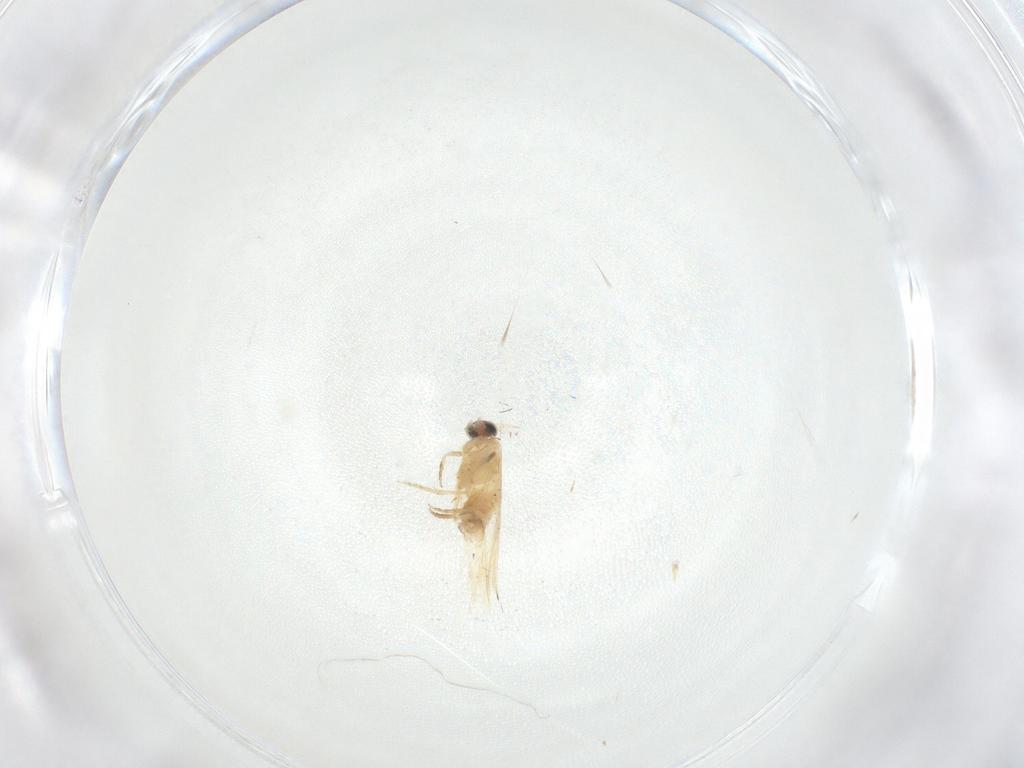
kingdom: Animalia
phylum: Arthropoda
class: Insecta
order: Lepidoptera
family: Nepticulidae
